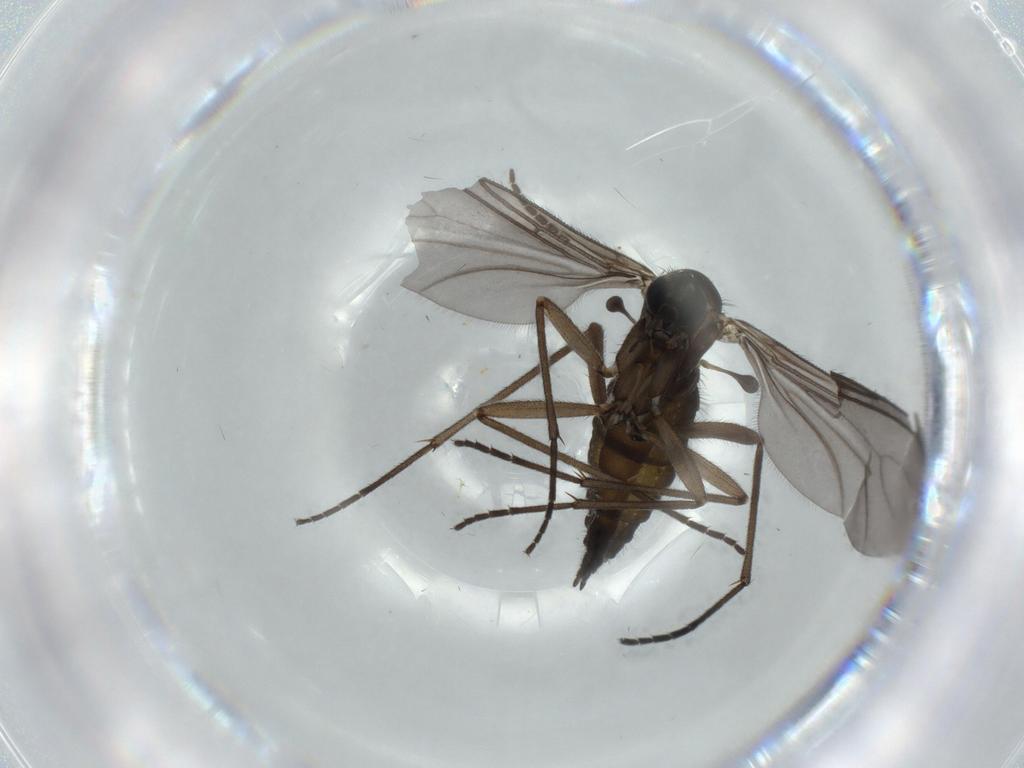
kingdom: Animalia
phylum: Arthropoda
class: Insecta
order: Diptera
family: Sciaridae
